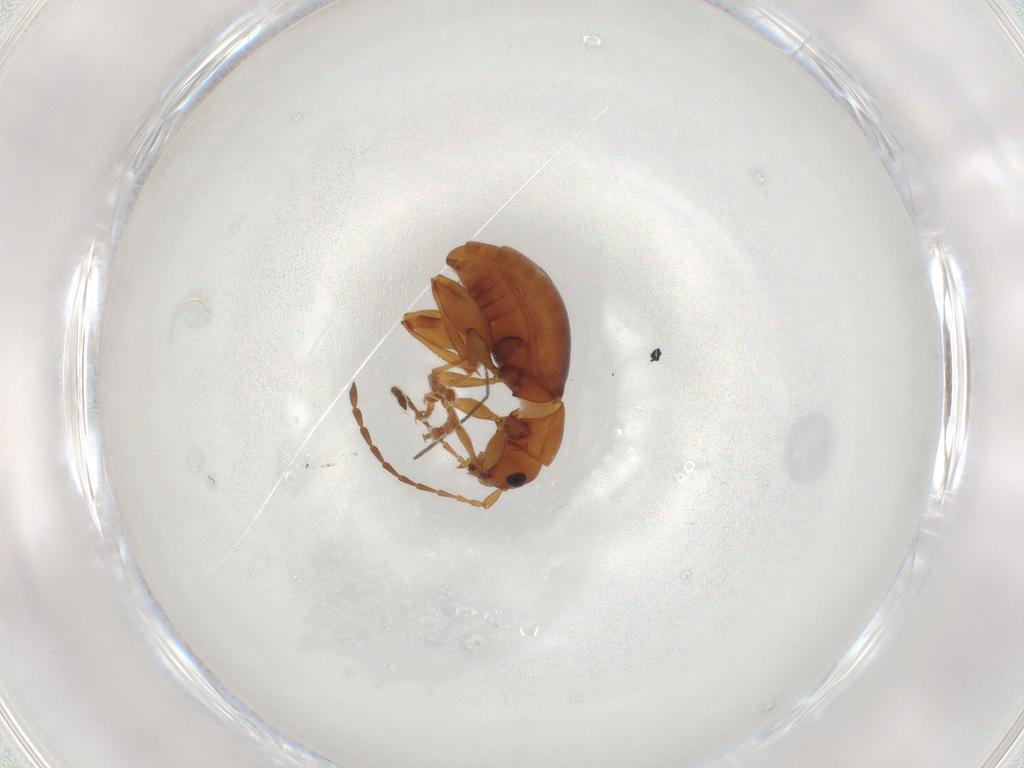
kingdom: Animalia
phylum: Arthropoda
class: Insecta
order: Coleoptera
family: Chrysomelidae
